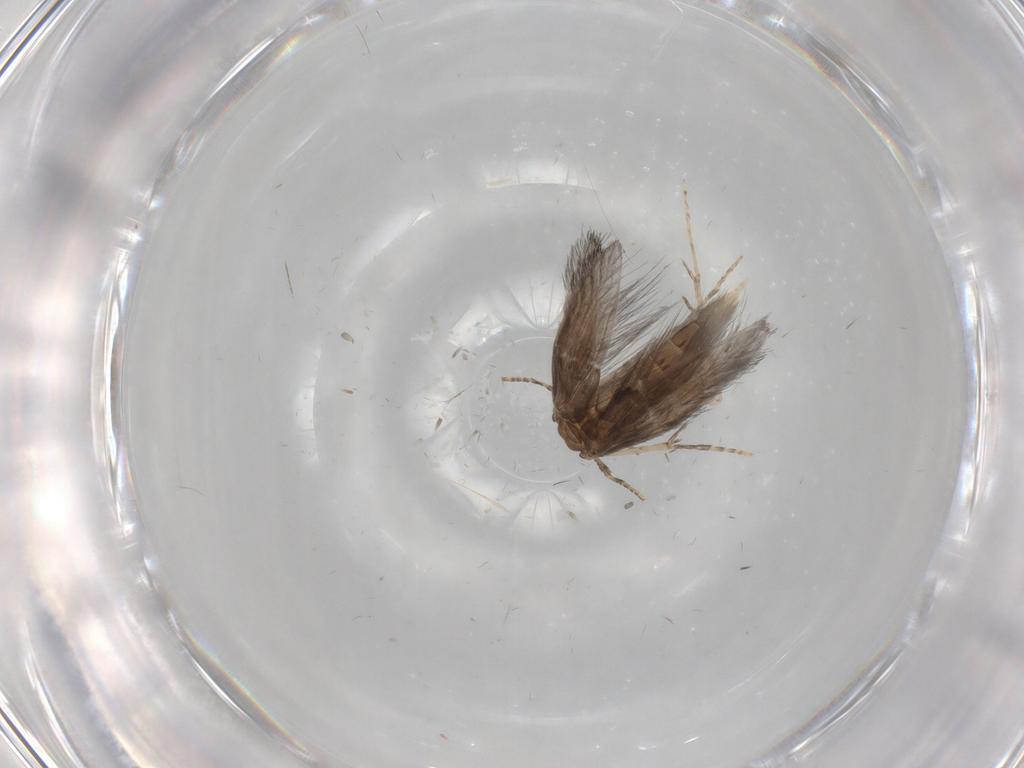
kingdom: Animalia
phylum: Arthropoda
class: Insecta
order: Trichoptera
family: Hydroptilidae
